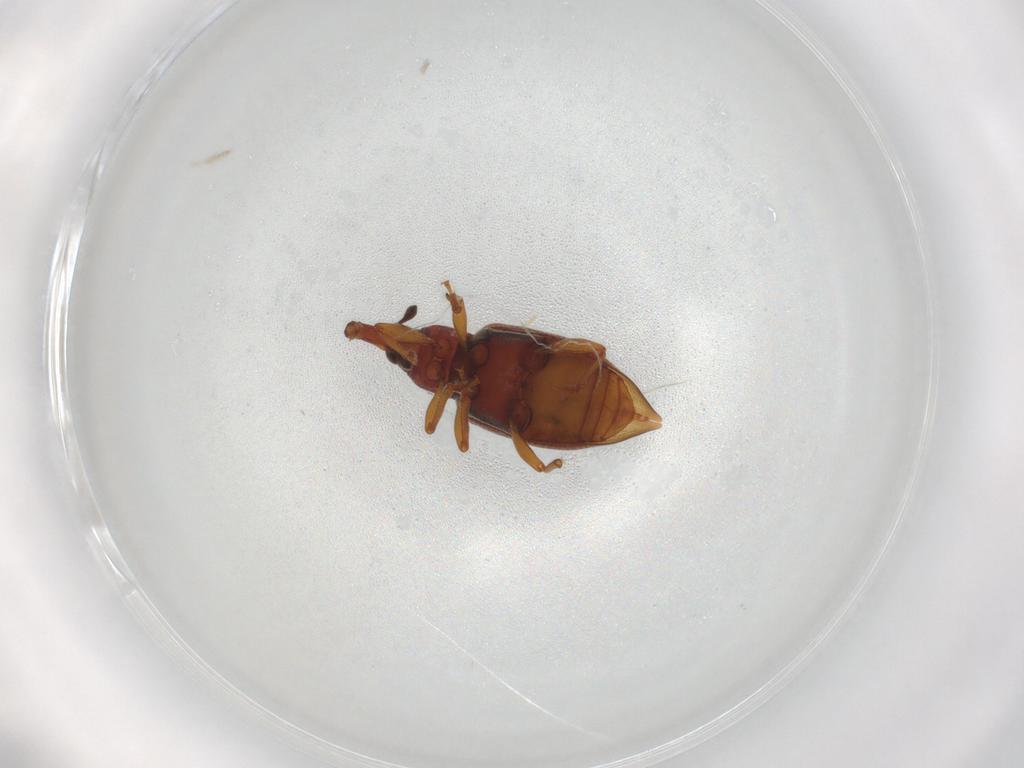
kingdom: Animalia
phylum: Arthropoda
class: Insecta
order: Coleoptera
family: Curculionidae
